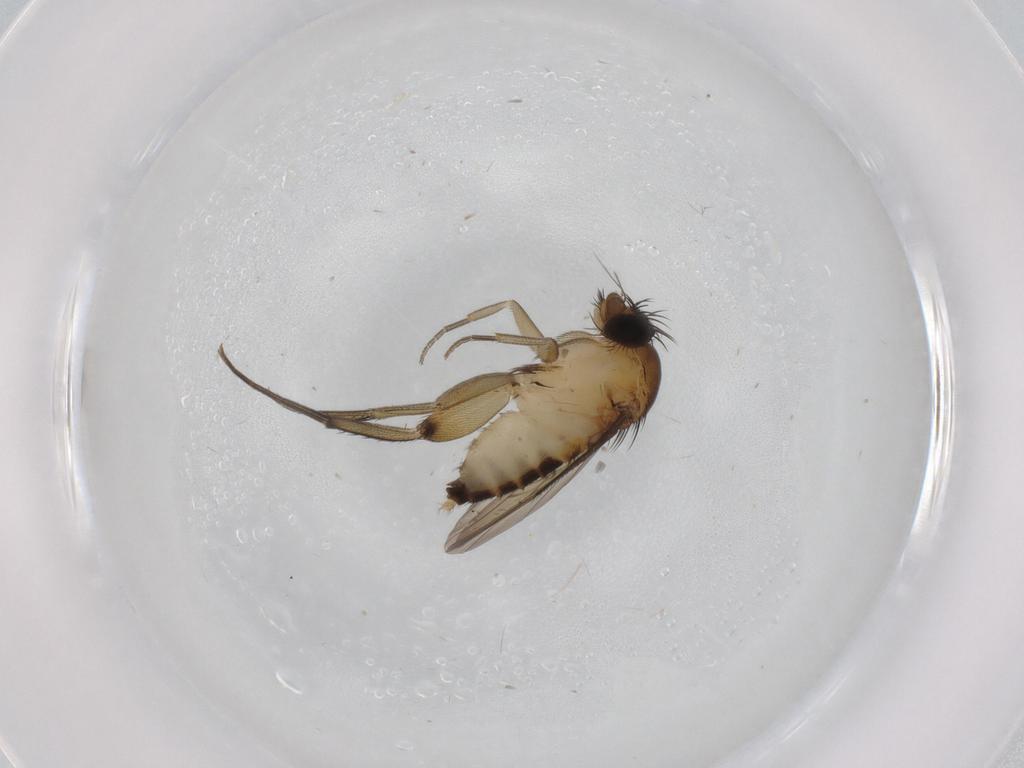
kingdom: Animalia
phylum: Arthropoda
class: Insecta
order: Diptera
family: Phoridae
